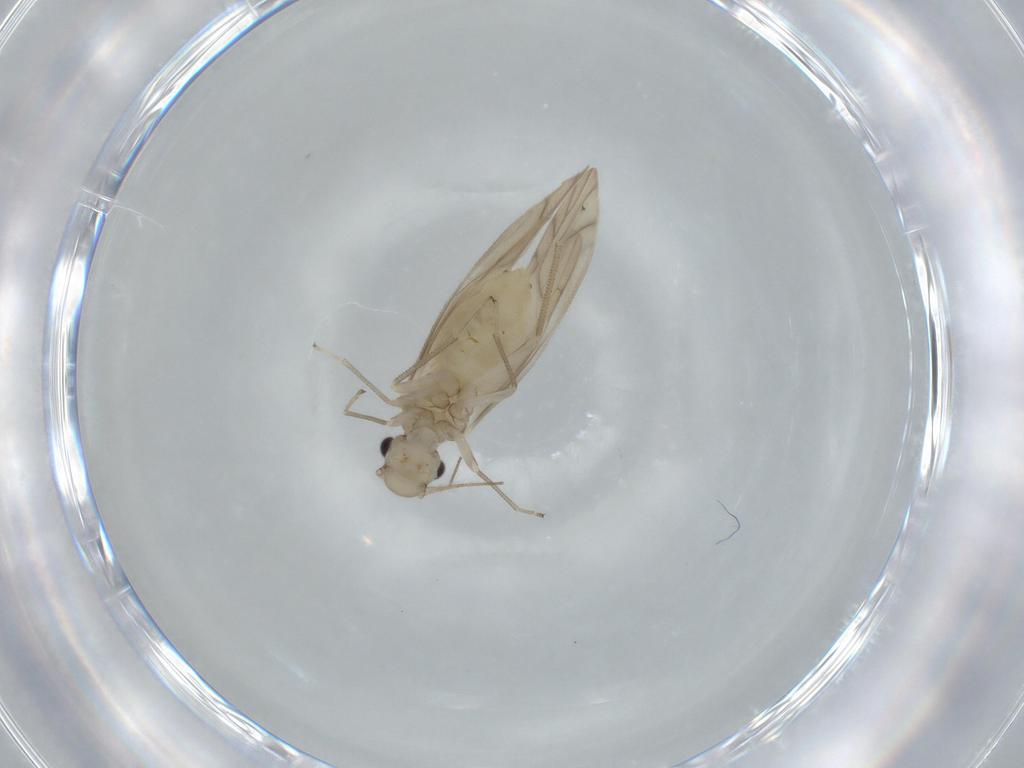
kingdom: Animalia
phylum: Arthropoda
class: Insecta
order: Psocodea
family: Caeciliusidae
